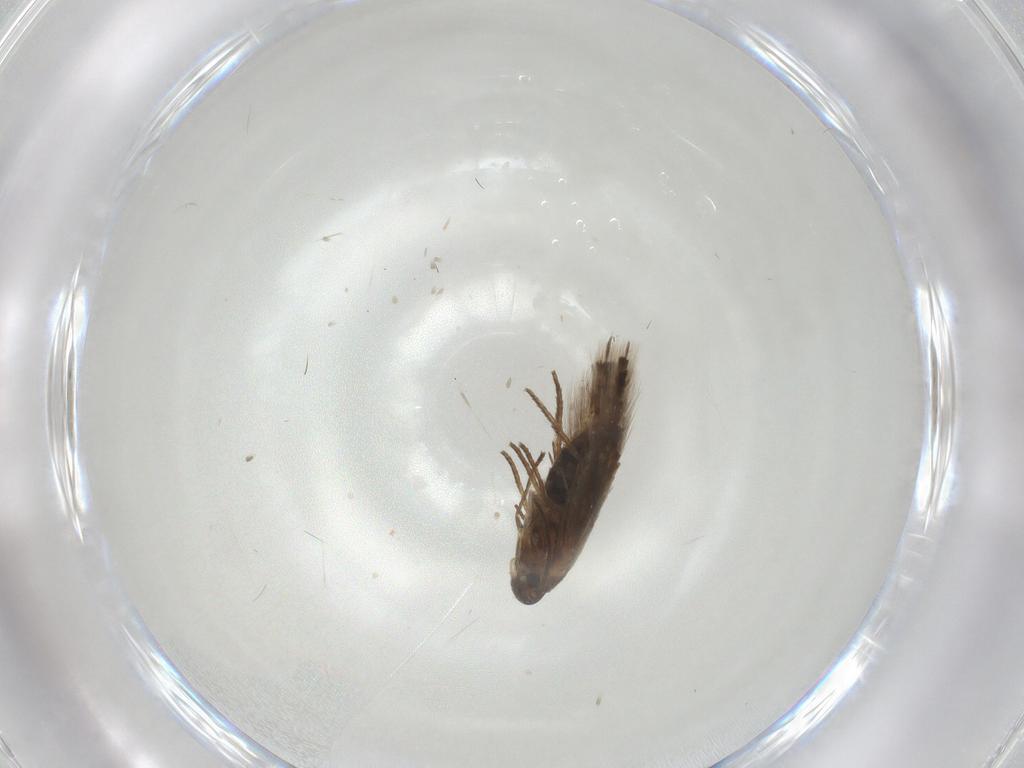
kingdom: Animalia
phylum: Arthropoda
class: Insecta
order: Lepidoptera
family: Heliozelidae
